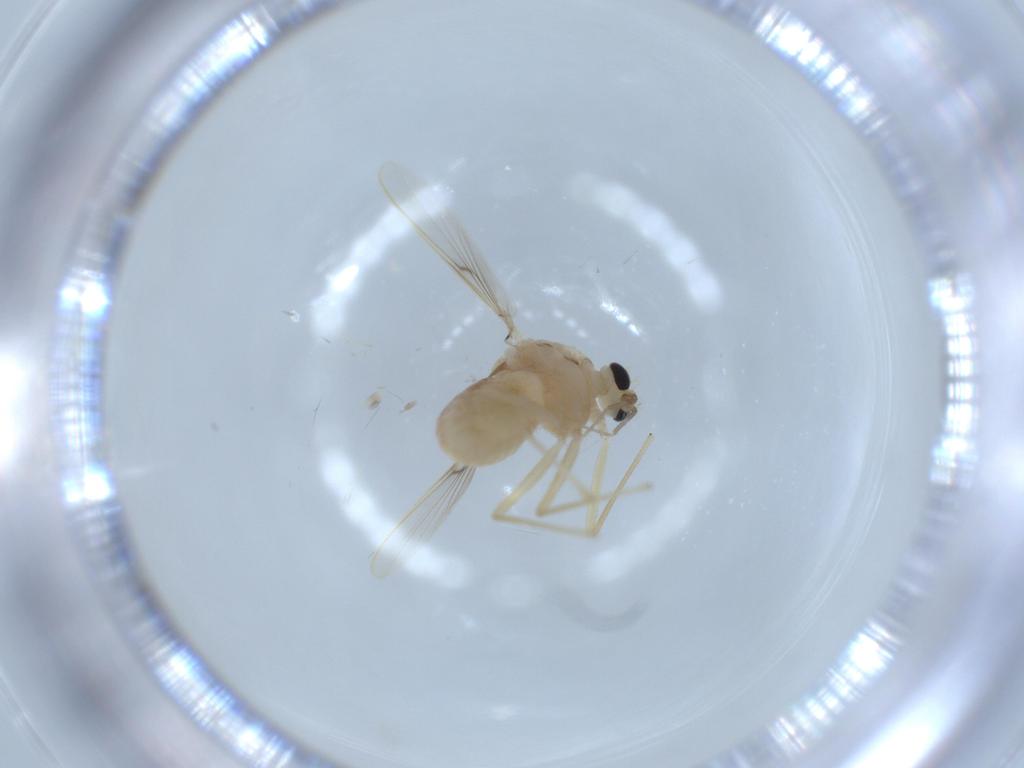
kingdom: Animalia
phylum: Arthropoda
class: Insecta
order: Diptera
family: Chironomidae
